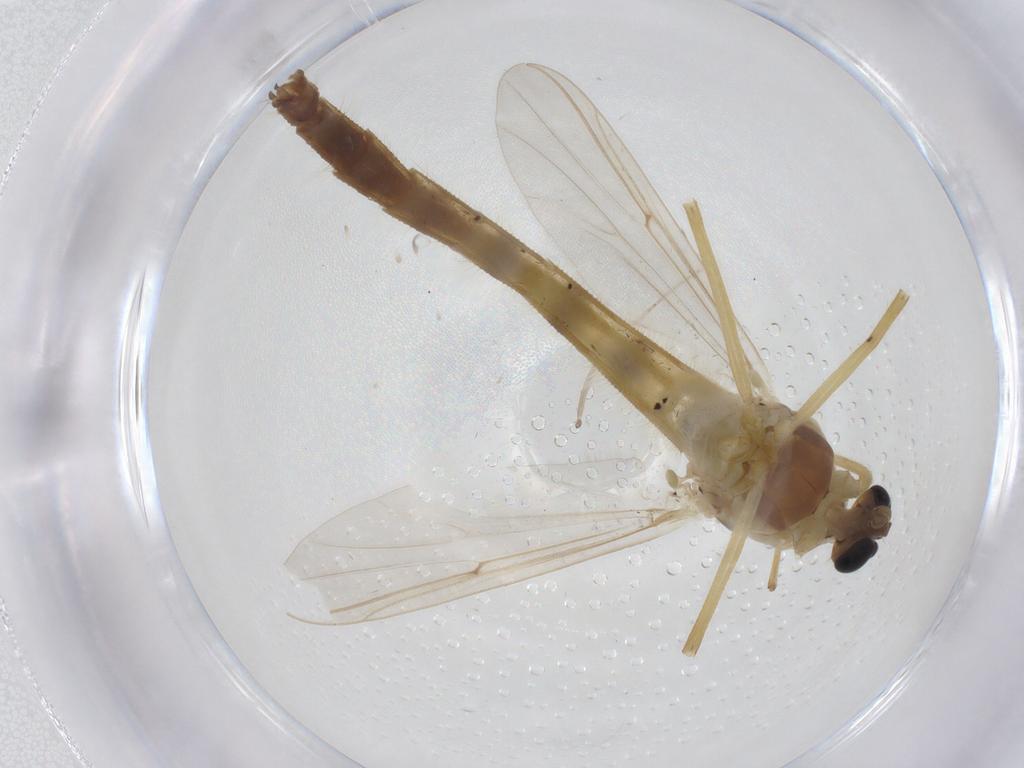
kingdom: Animalia
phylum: Arthropoda
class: Insecta
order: Diptera
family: Chironomidae
